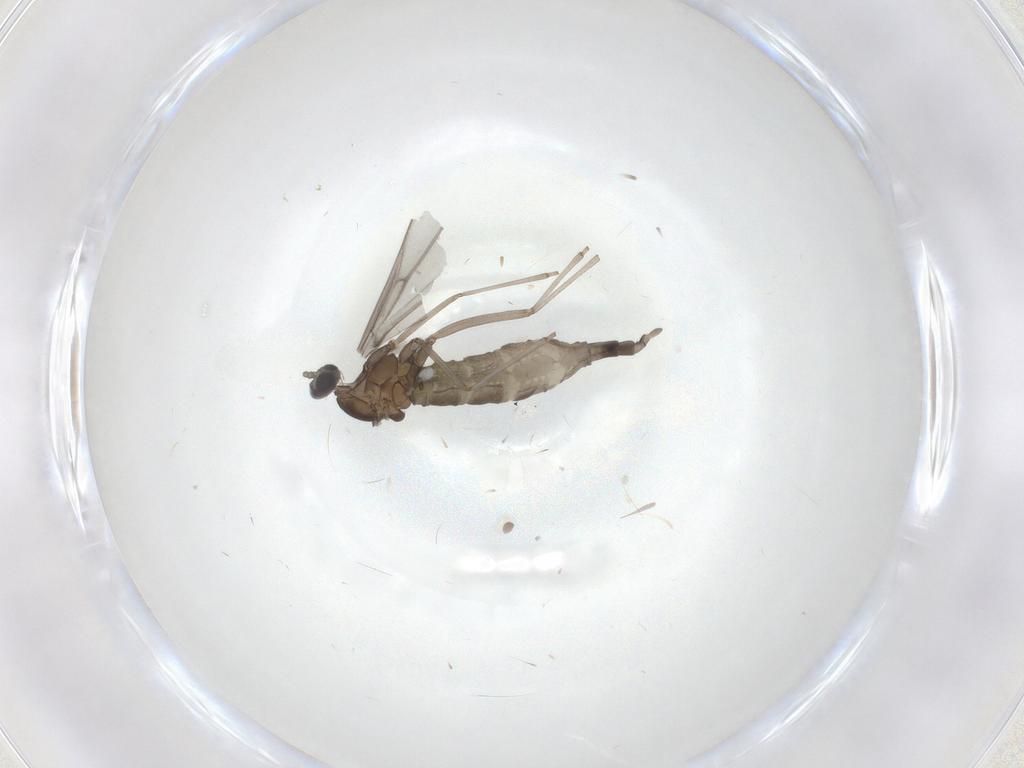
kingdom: Animalia
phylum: Arthropoda
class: Insecta
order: Diptera
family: Cecidomyiidae
